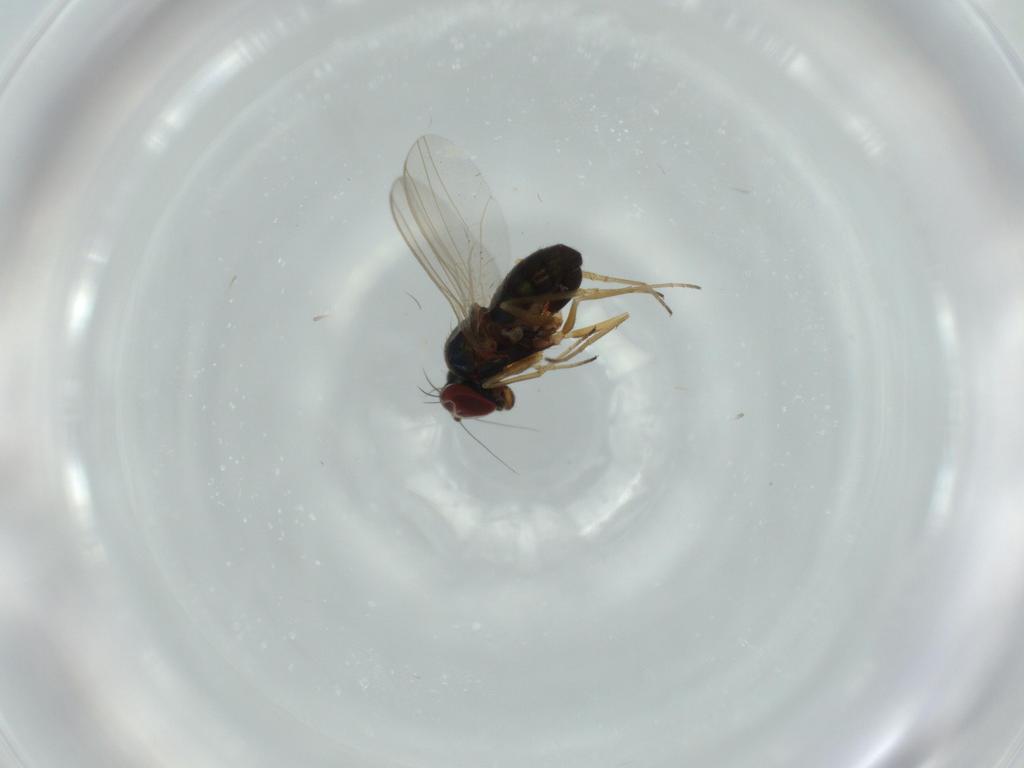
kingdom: Animalia
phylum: Arthropoda
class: Insecta
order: Diptera
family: Dolichopodidae
